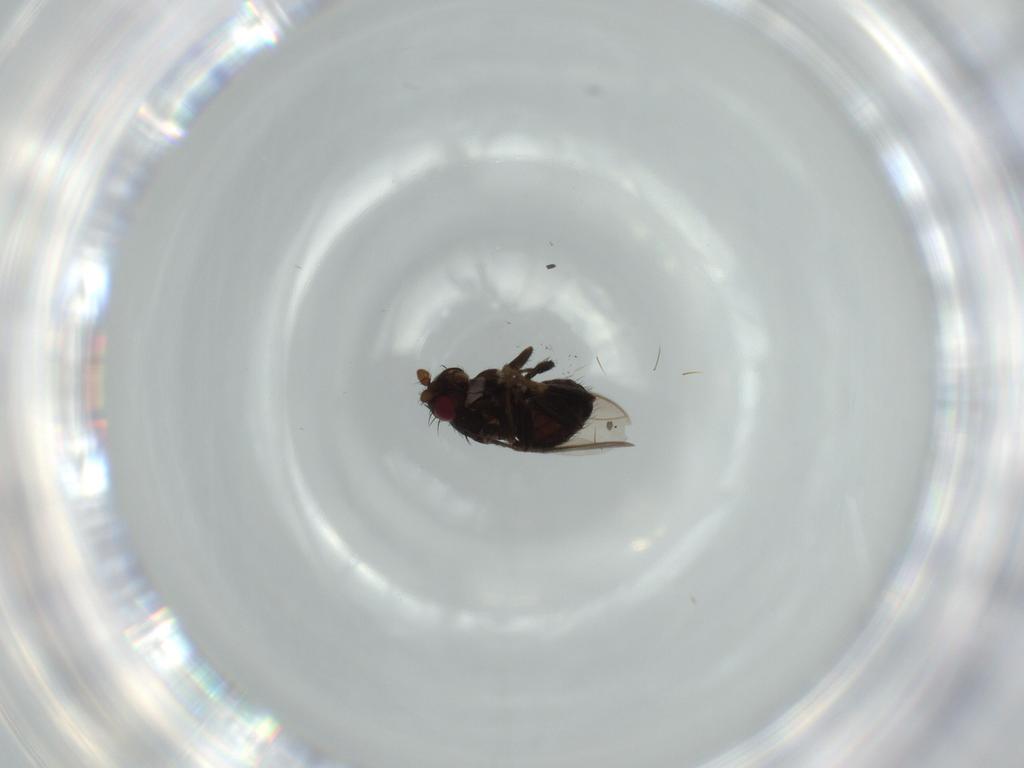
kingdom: Animalia
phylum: Arthropoda
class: Insecta
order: Diptera
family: Sphaeroceridae
